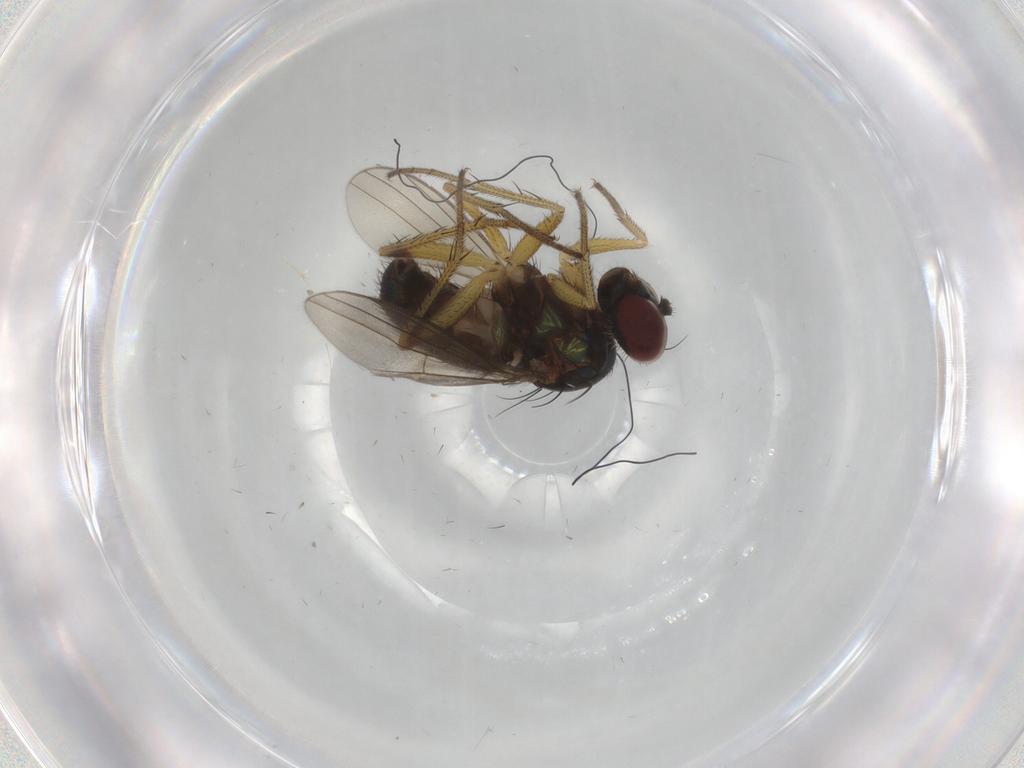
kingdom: Animalia
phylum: Arthropoda
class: Insecta
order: Diptera
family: Dolichopodidae
